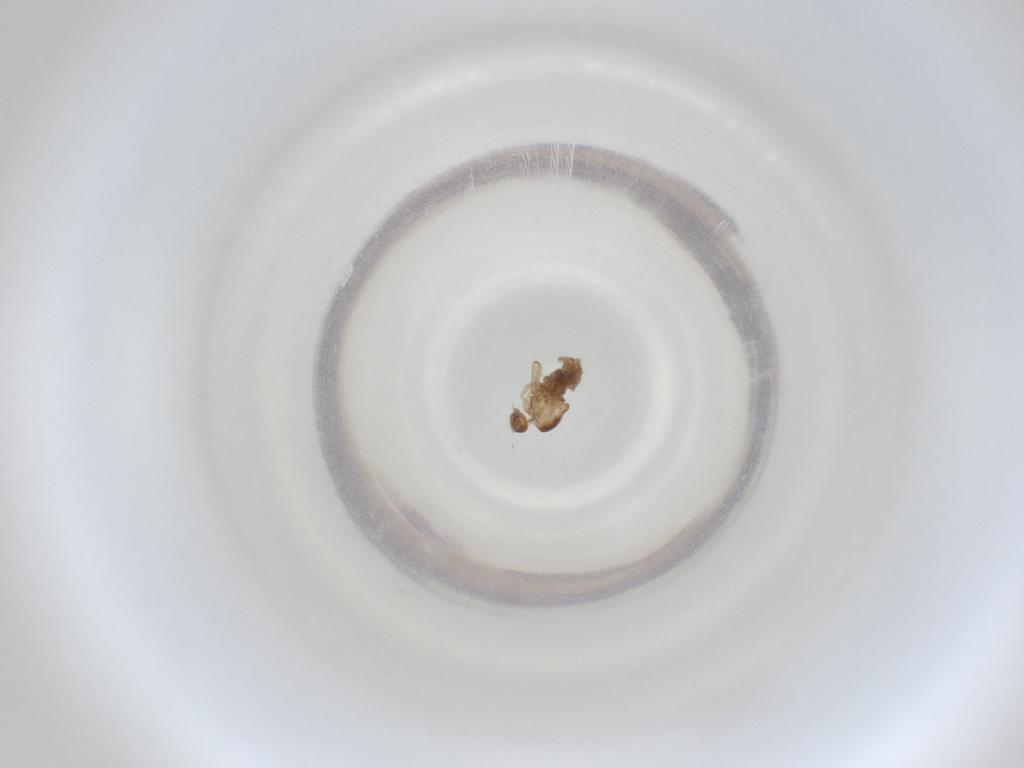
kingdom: Animalia
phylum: Arthropoda
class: Insecta
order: Diptera
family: Cecidomyiidae
